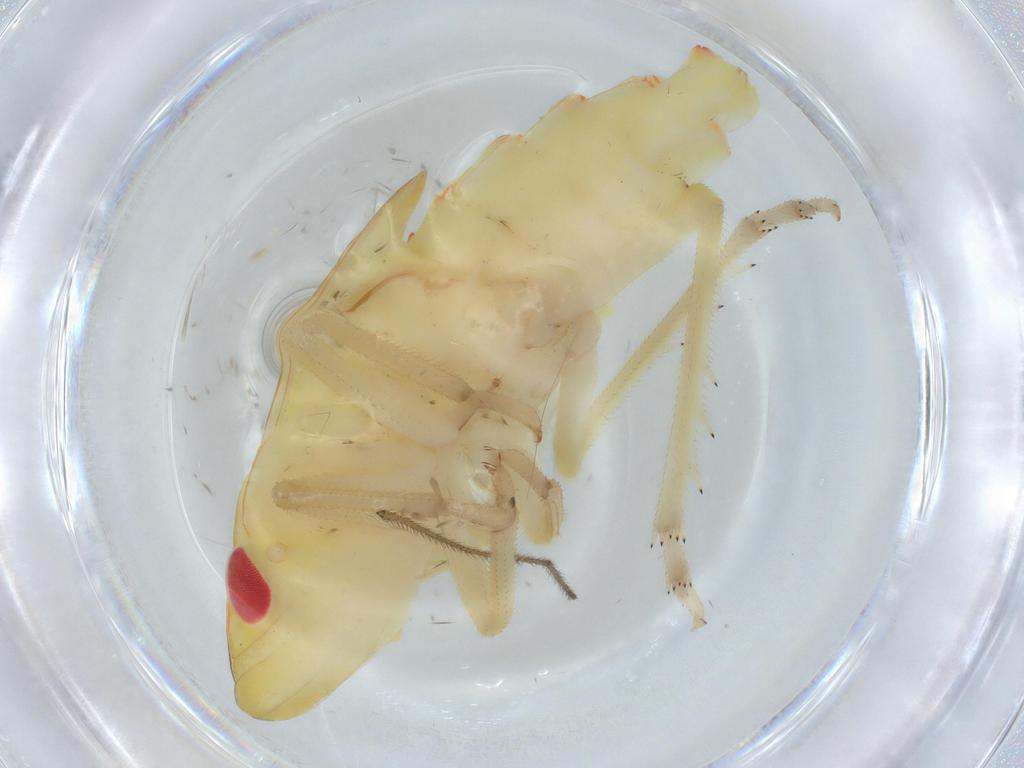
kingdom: Animalia
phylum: Arthropoda
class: Insecta
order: Hemiptera
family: Tropiduchidae
